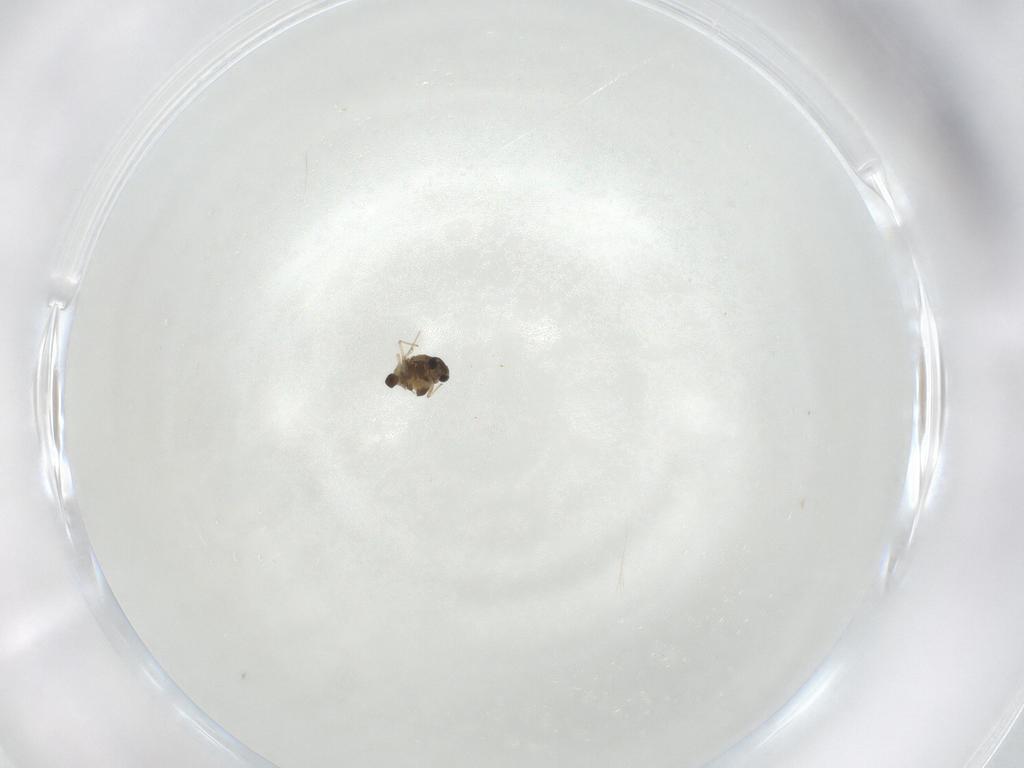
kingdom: Animalia
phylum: Arthropoda
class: Insecta
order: Diptera
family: Chironomidae
